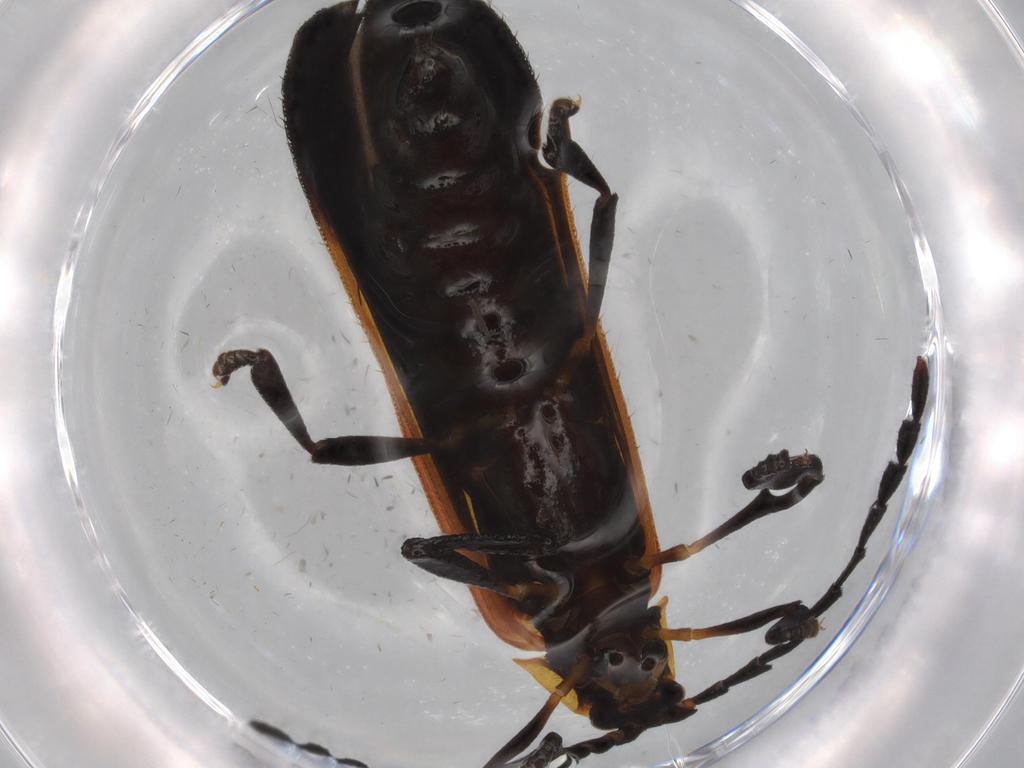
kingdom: Animalia
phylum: Arthropoda
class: Insecta
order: Coleoptera
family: Lycidae
